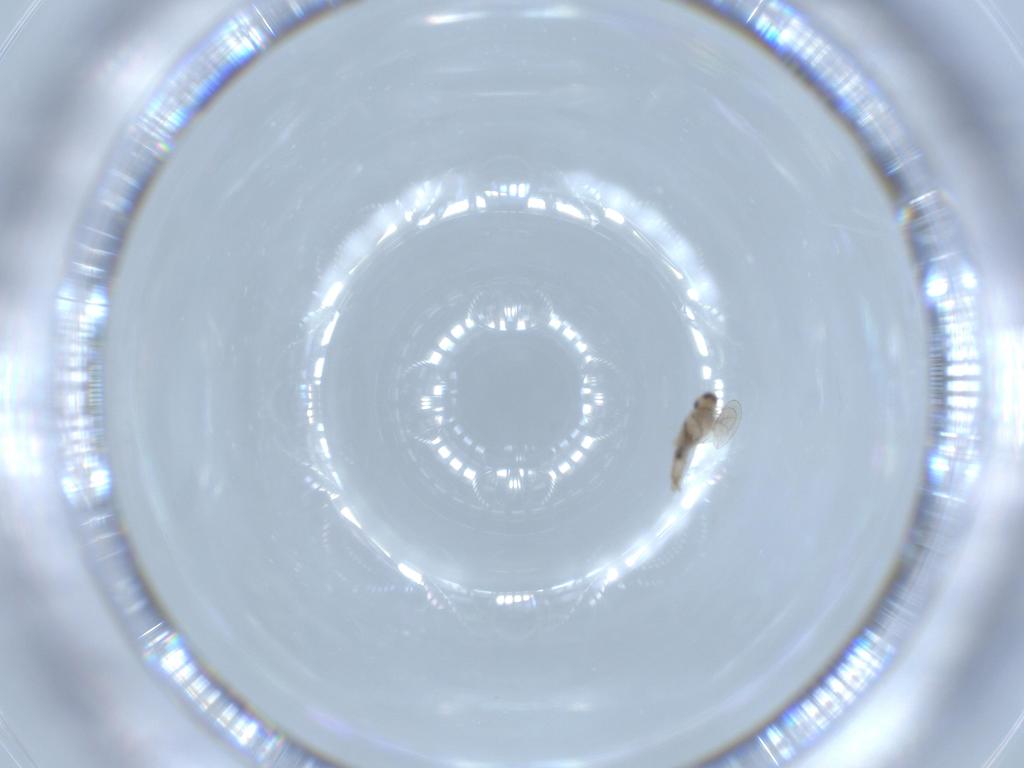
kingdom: Animalia
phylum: Arthropoda
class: Insecta
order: Diptera
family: Cecidomyiidae
